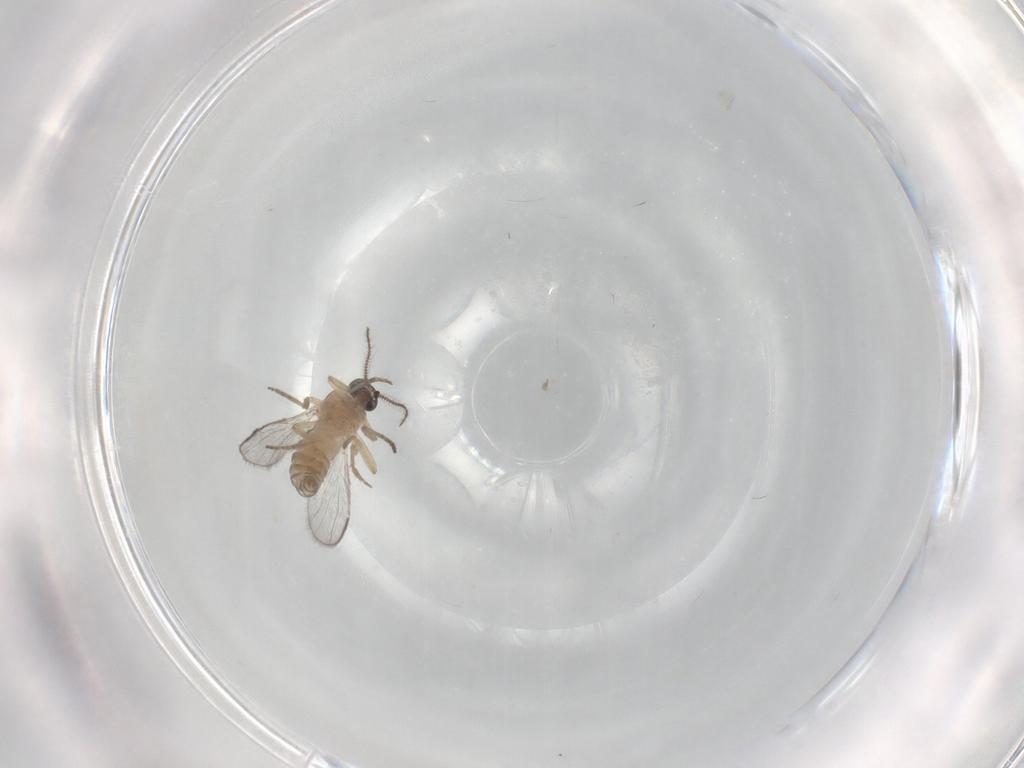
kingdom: Animalia
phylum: Arthropoda
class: Insecta
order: Diptera
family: Ceratopogonidae
